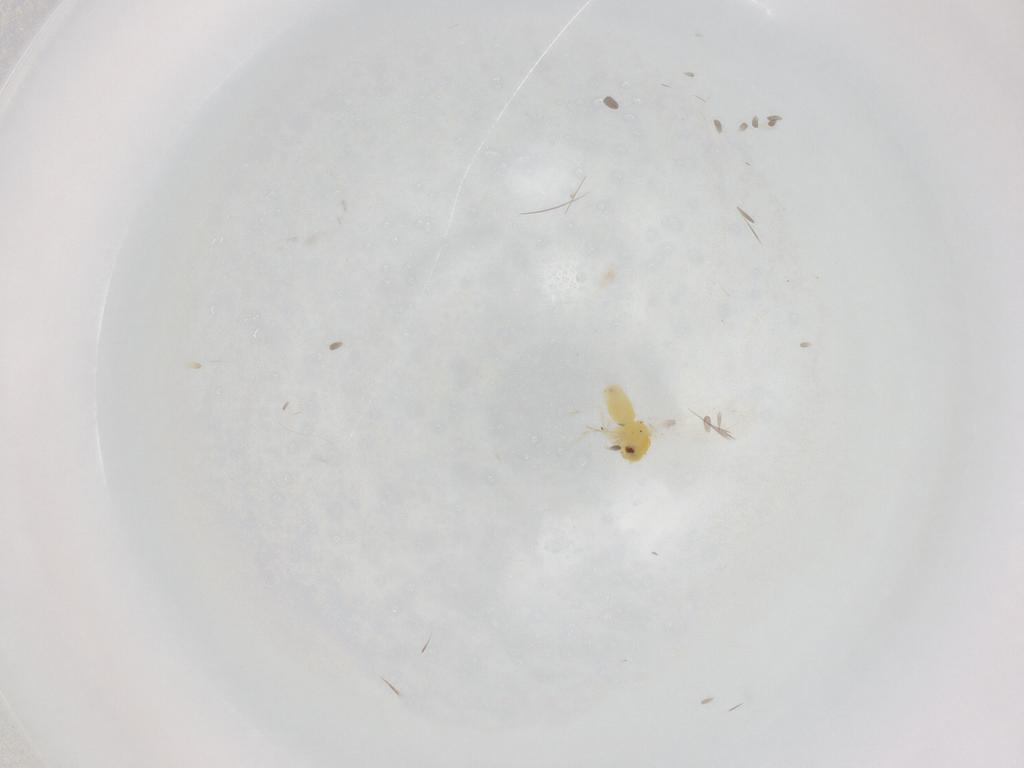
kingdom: Animalia
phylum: Arthropoda
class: Insecta
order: Hemiptera
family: Aleyrodidae
